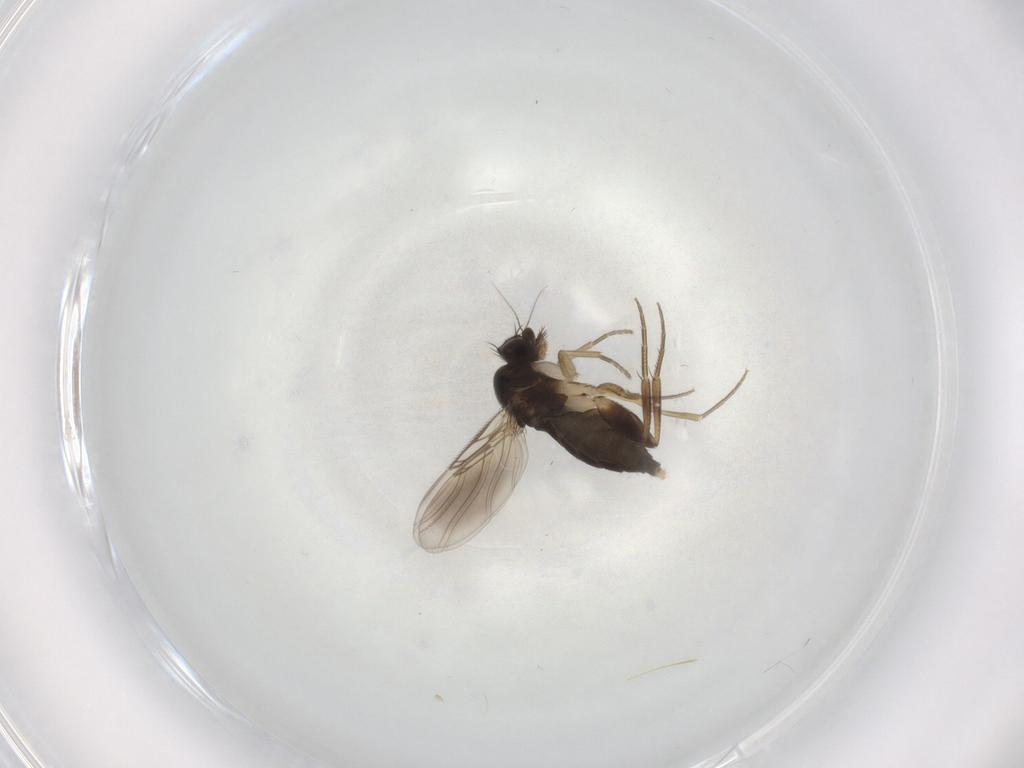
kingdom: Animalia
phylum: Arthropoda
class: Insecta
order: Diptera
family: Phoridae
